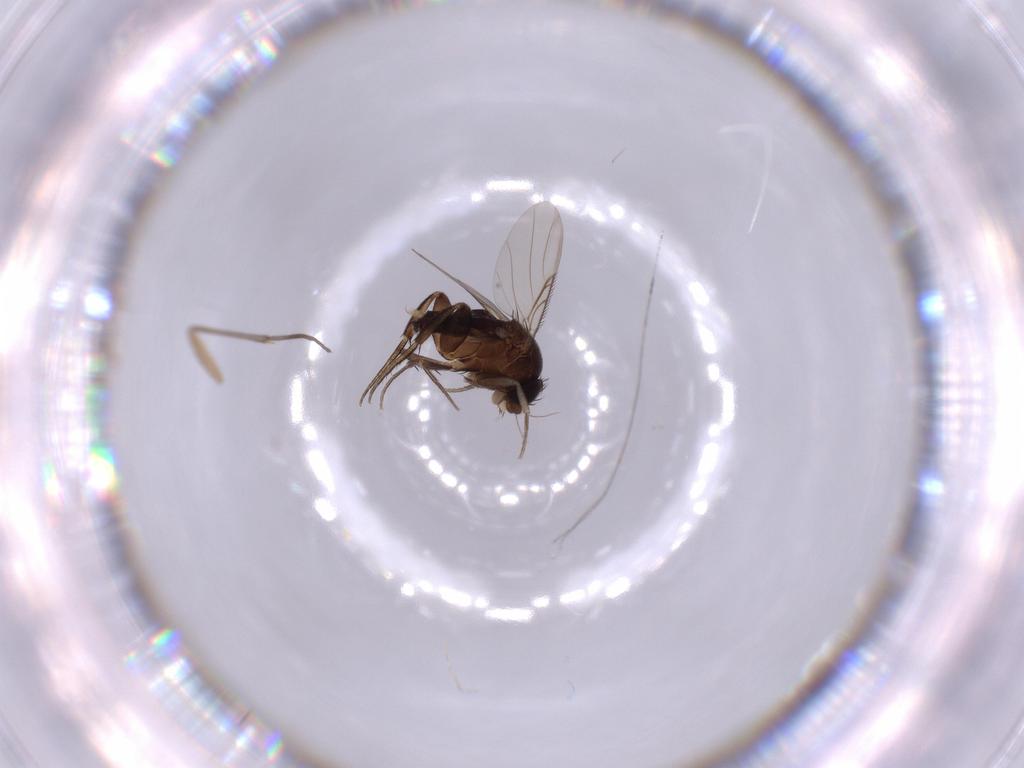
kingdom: Animalia
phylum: Arthropoda
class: Insecta
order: Diptera
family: Phoridae
